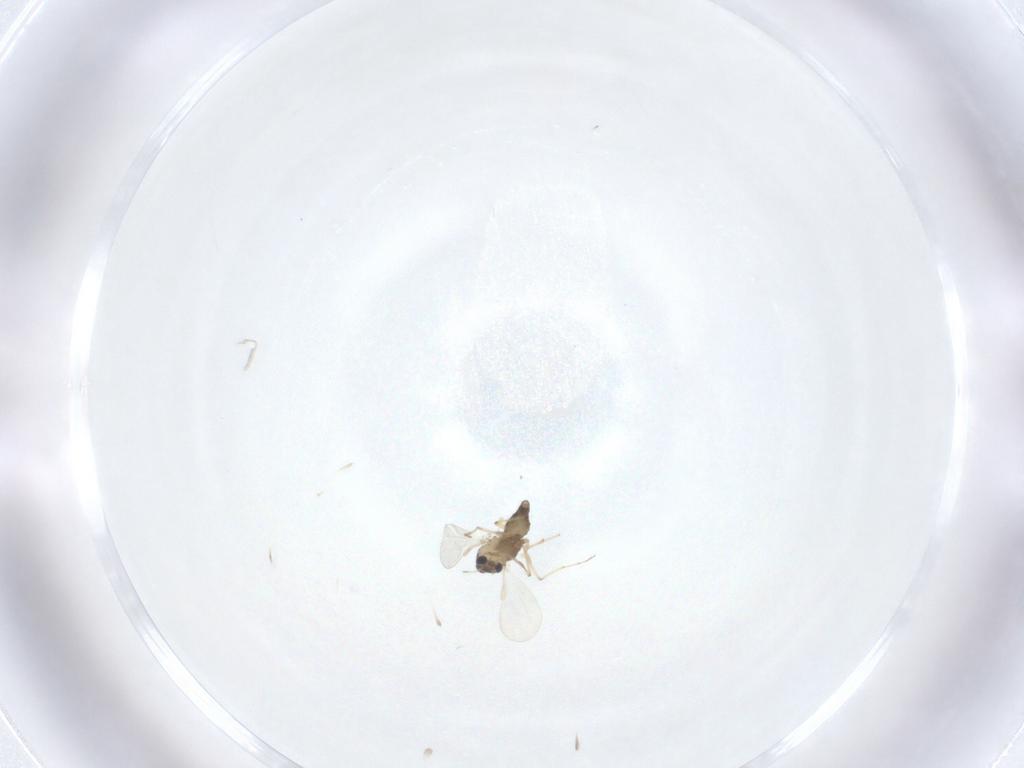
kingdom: Animalia
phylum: Arthropoda
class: Insecta
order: Diptera
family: Chironomidae
